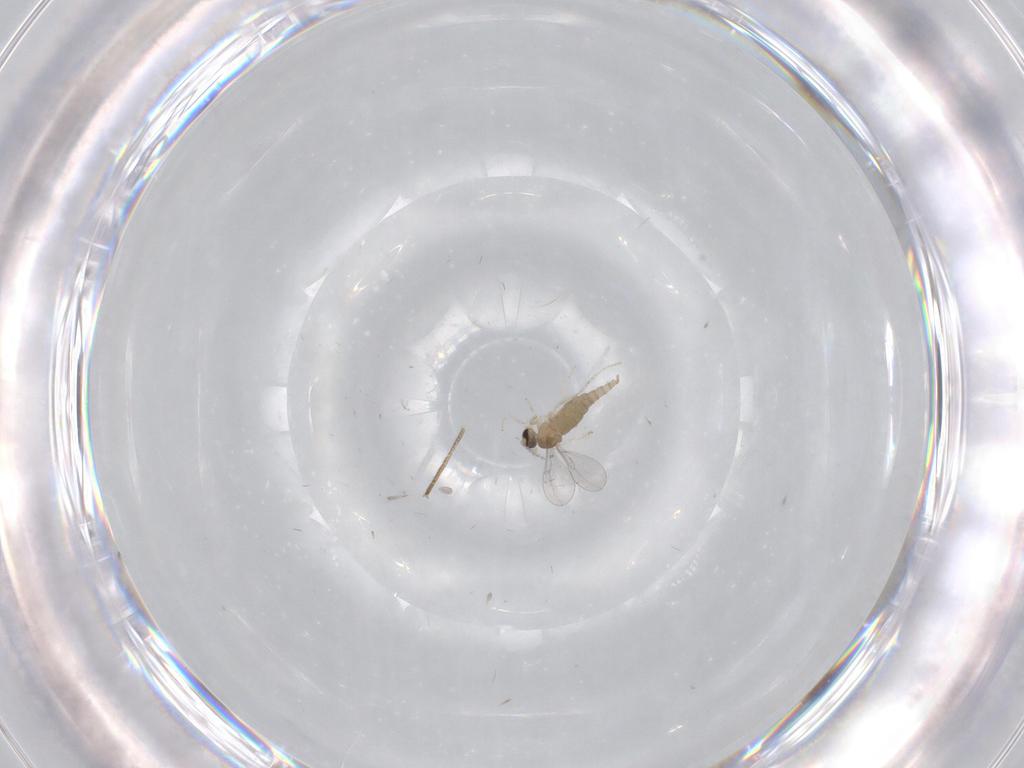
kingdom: Animalia
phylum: Arthropoda
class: Insecta
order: Diptera
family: Cecidomyiidae
